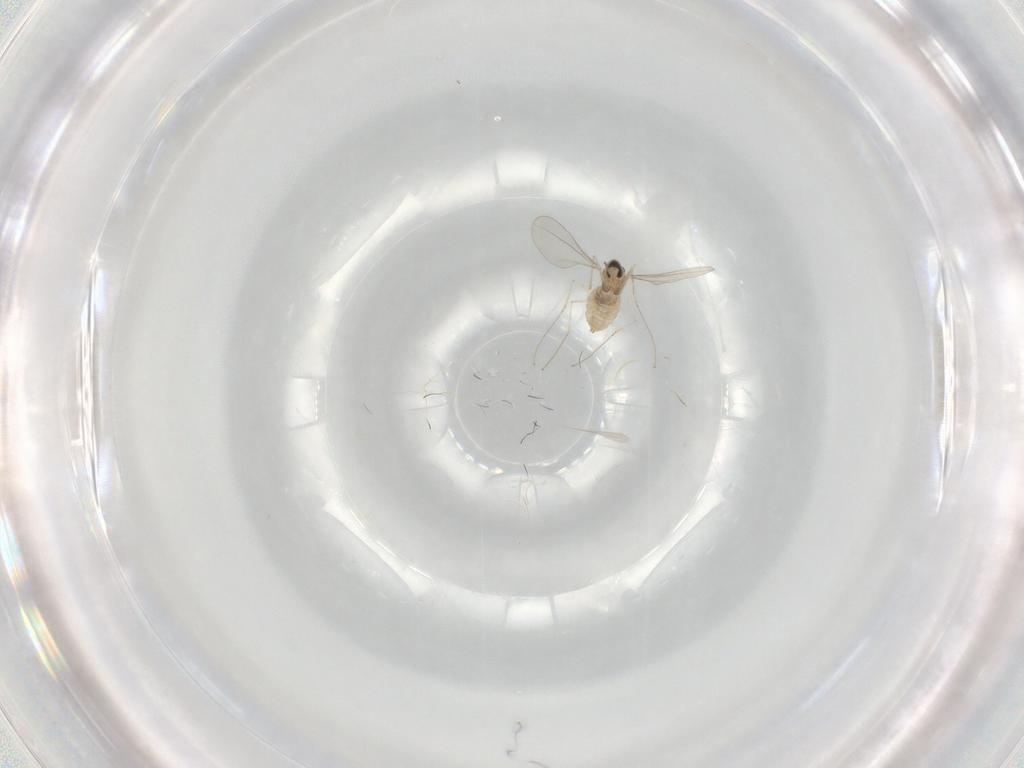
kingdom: Animalia
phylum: Arthropoda
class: Insecta
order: Diptera
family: Cecidomyiidae
